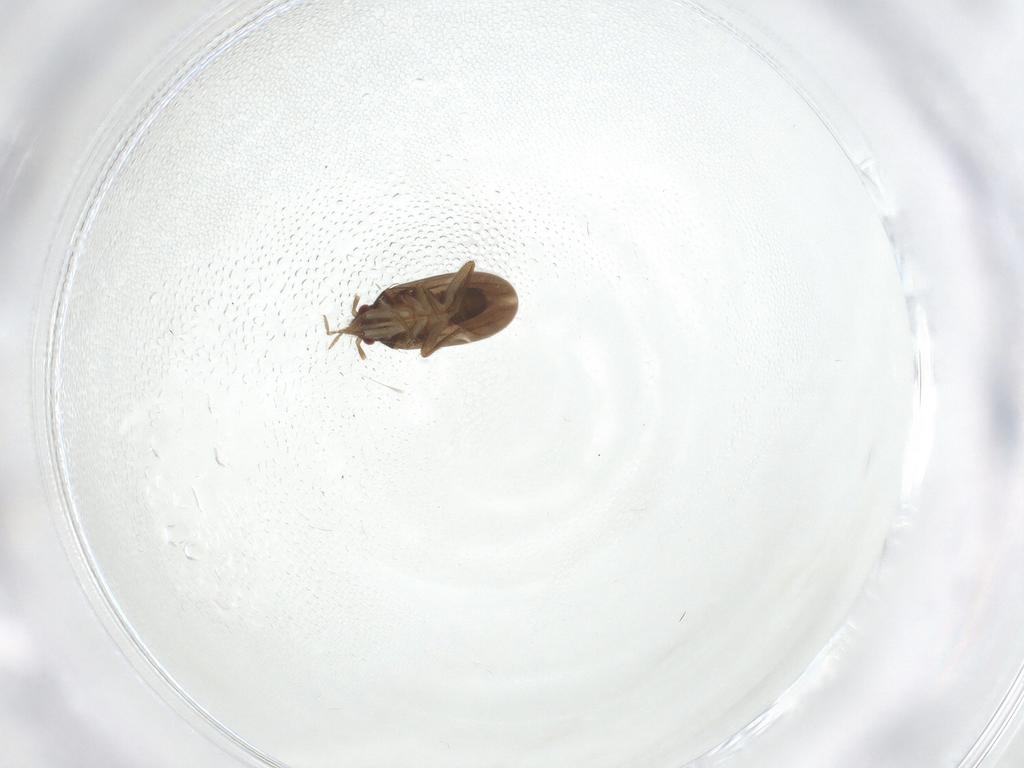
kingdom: Animalia
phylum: Arthropoda
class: Insecta
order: Hemiptera
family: Ceratocombidae
